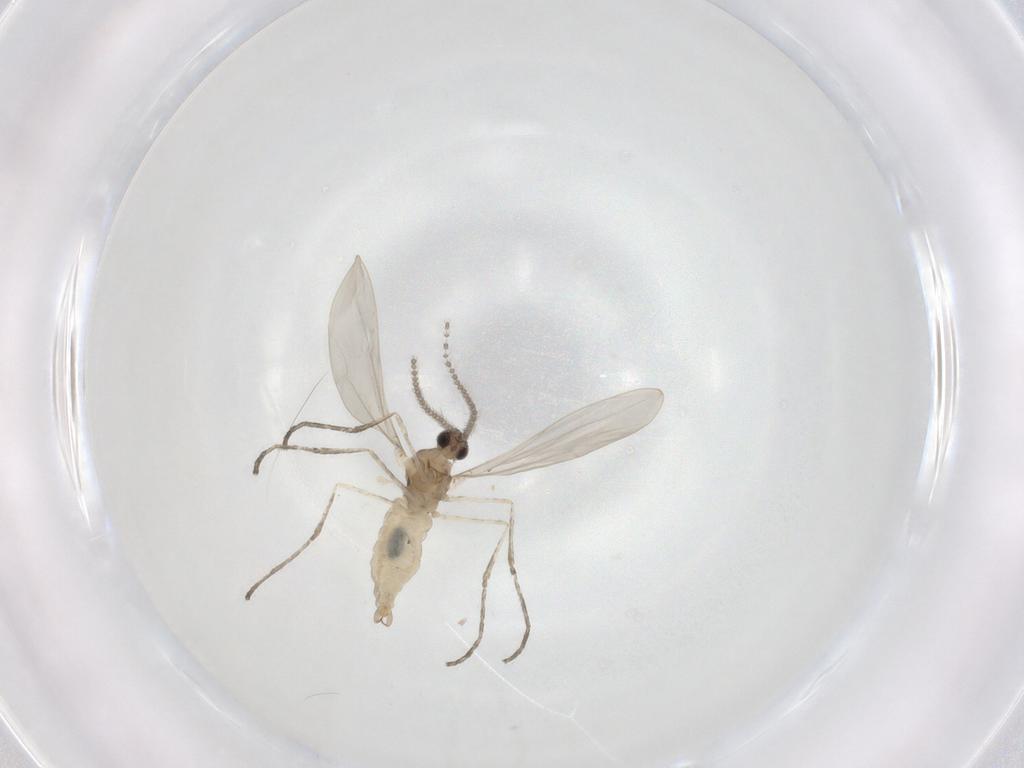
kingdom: Animalia
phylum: Arthropoda
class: Insecta
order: Diptera
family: Cecidomyiidae
